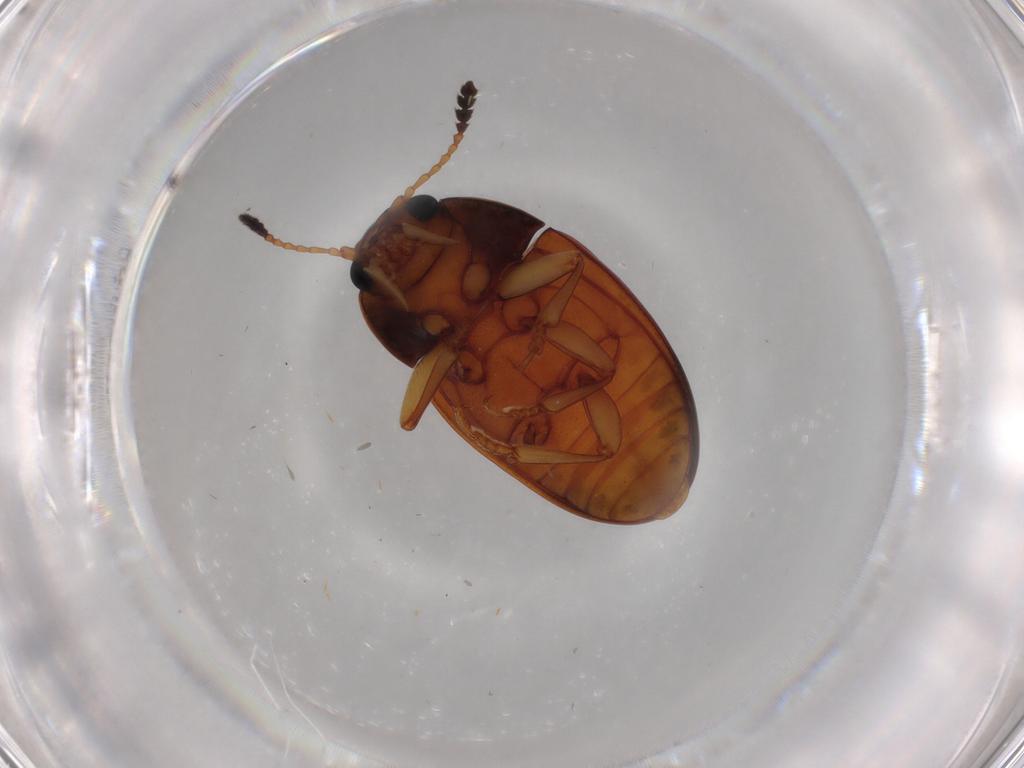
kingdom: Animalia
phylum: Arthropoda
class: Insecta
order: Coleoptera
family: Erotylidae
